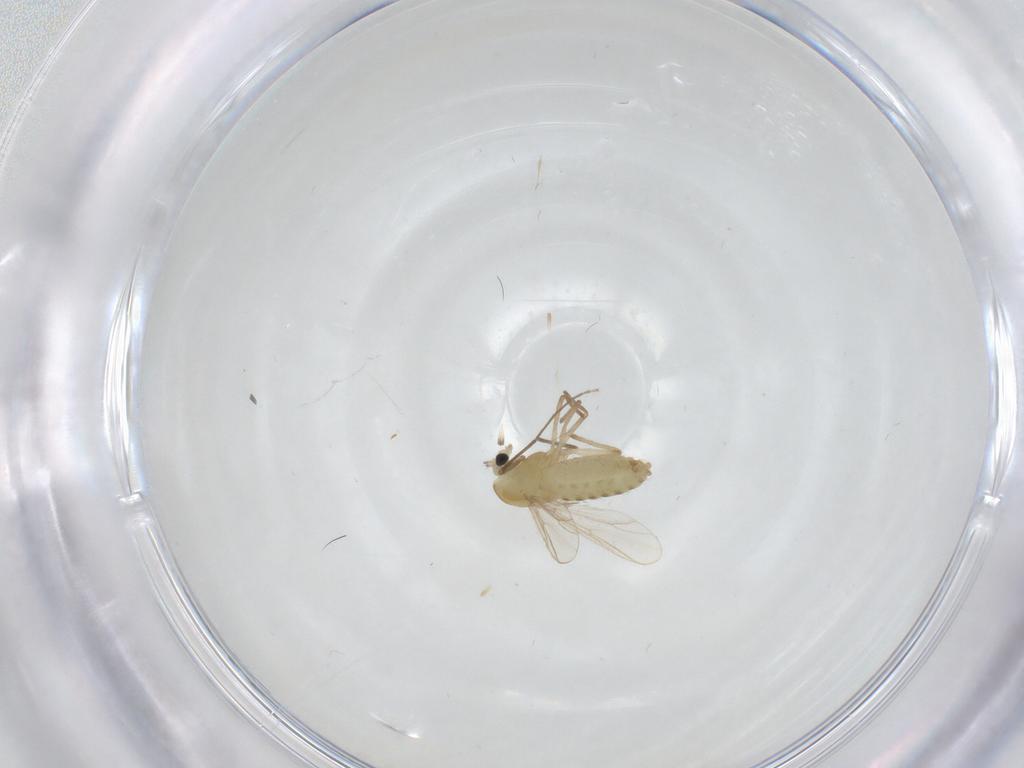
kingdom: Animalia
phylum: Arthropoda
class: Insecta
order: Diptera
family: Chironomidae
